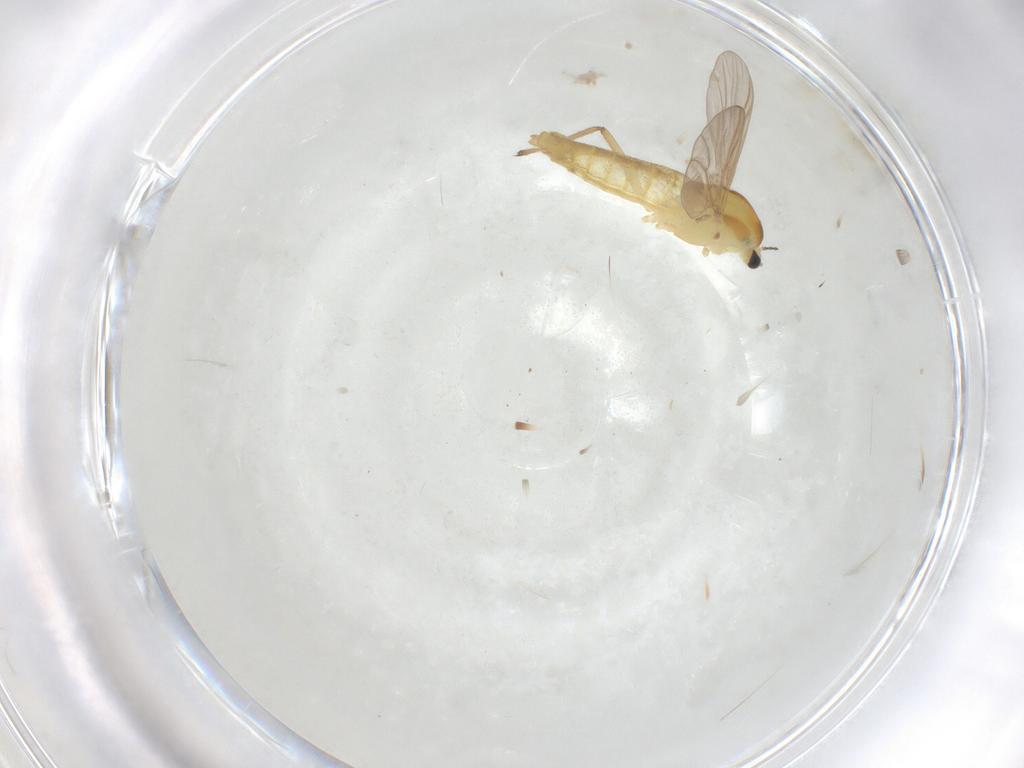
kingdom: Animalia
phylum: Arthropoda
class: Insecta
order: Diptera
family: Chironomidae
